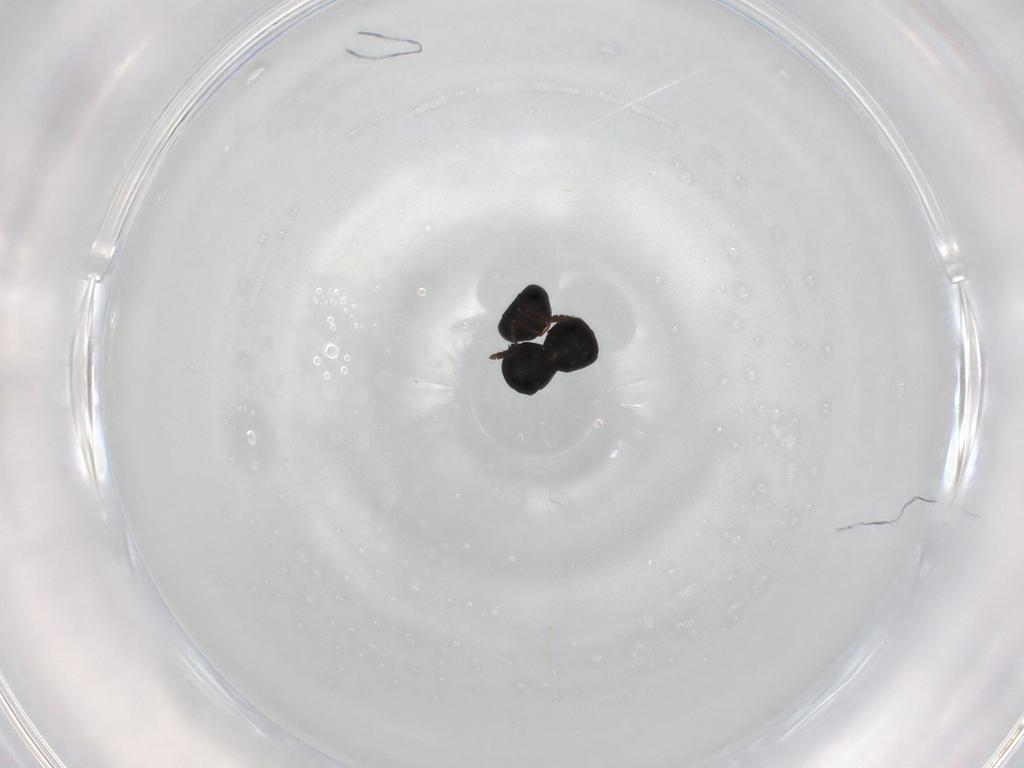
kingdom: Animalia
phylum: Arthropoda
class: Insecta
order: Hymenoptera
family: Scelionidae
